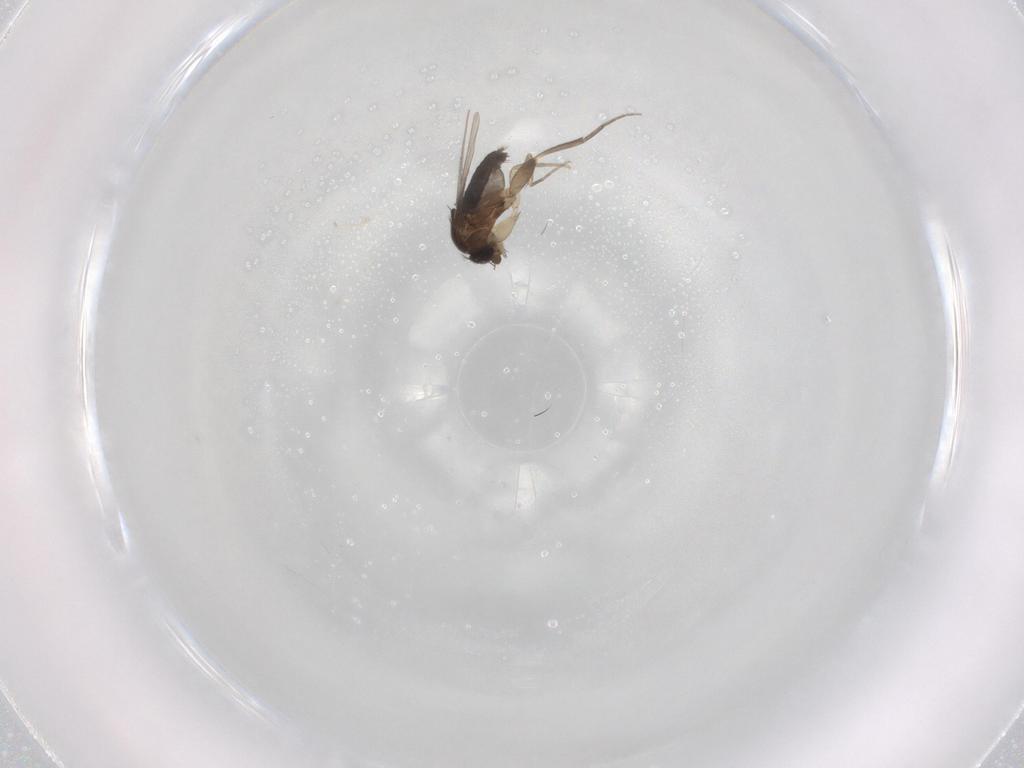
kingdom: Animalia
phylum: Arthropoda
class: Insecta
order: Diptera
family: Phoridae
